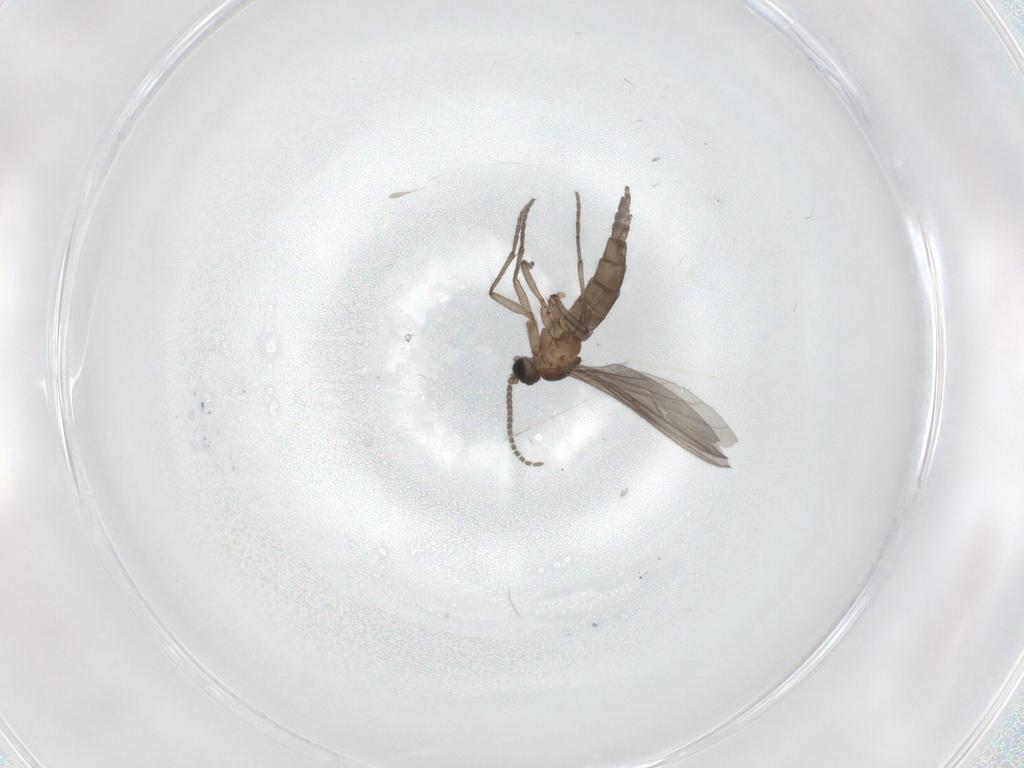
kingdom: Animalia
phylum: Arthropoda
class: Insecta
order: Diptera
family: Sciaridae
